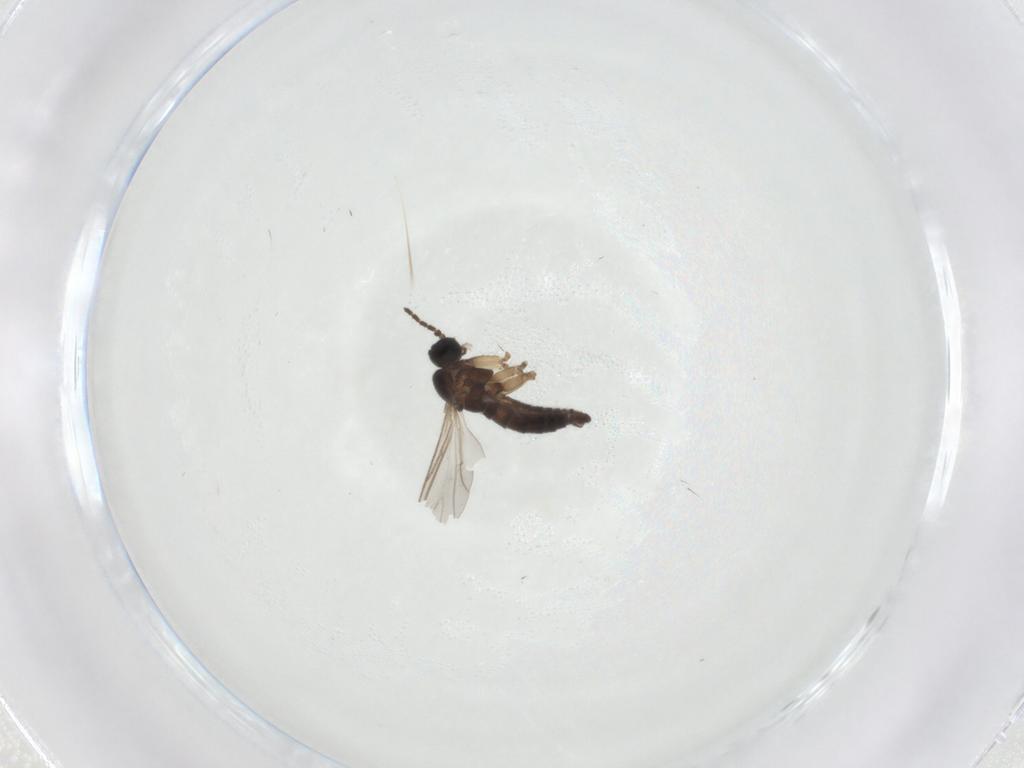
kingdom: Animalia
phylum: Arthropoda
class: Insecta
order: Diptera
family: Sciaridae
